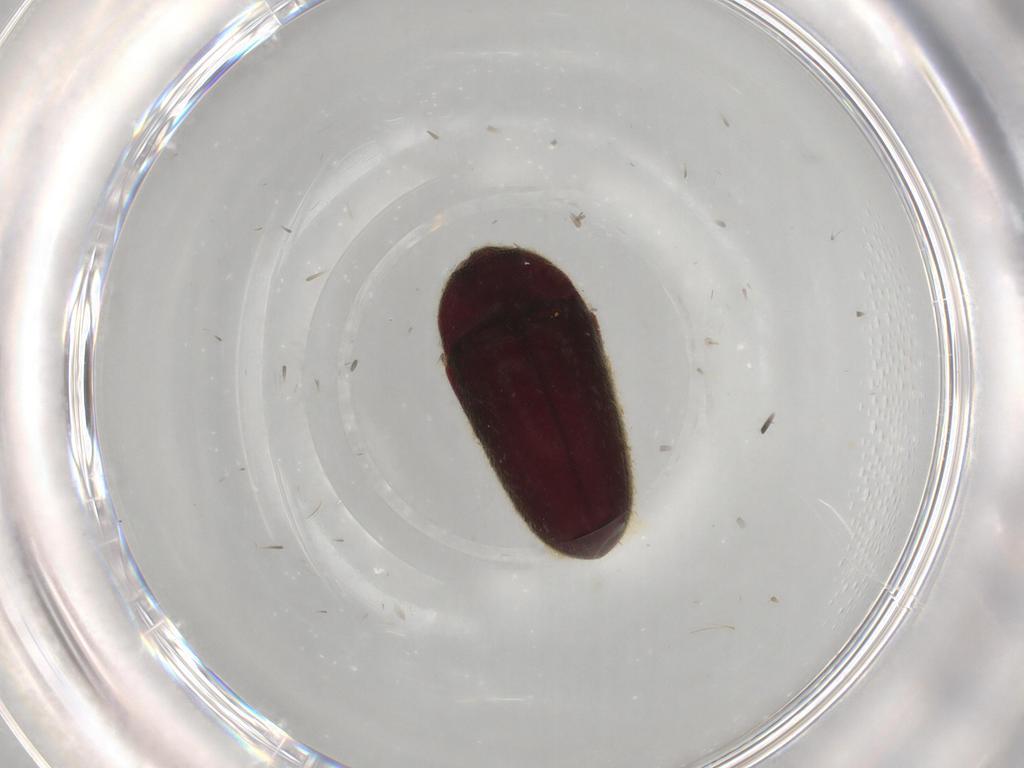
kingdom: Animalia
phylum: Arthropoda
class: Insecta
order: Coleoptera
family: Throscidae
